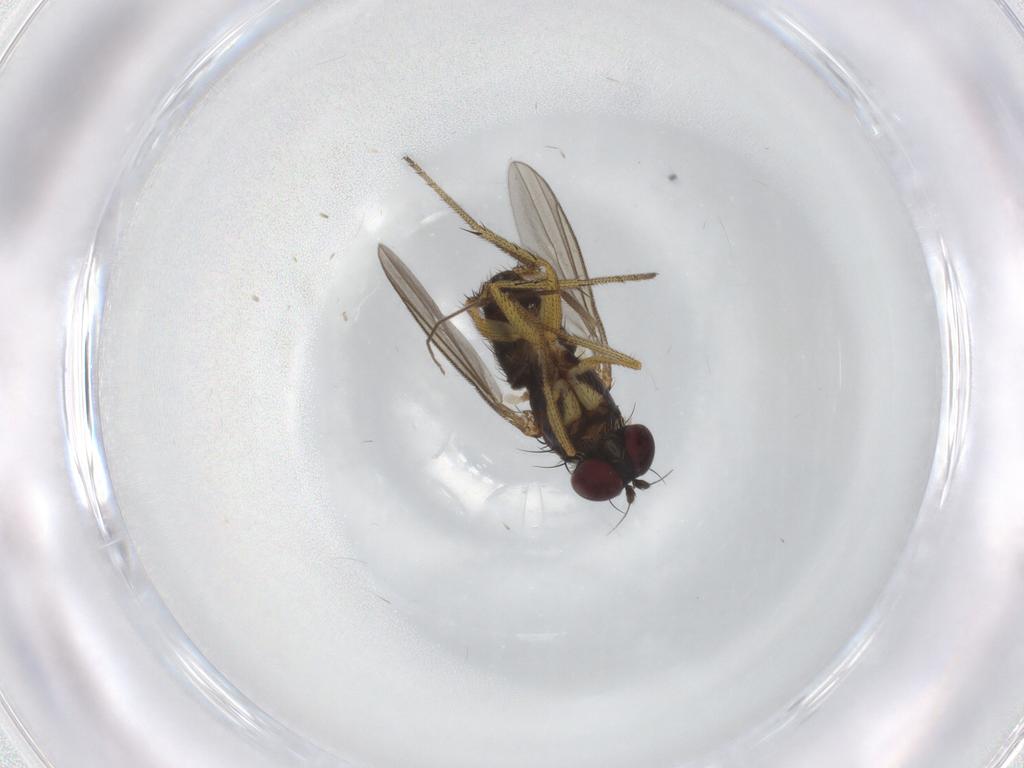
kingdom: Animalia
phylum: Arthropoda
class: Insecta
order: Diptera
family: Chironomidae
